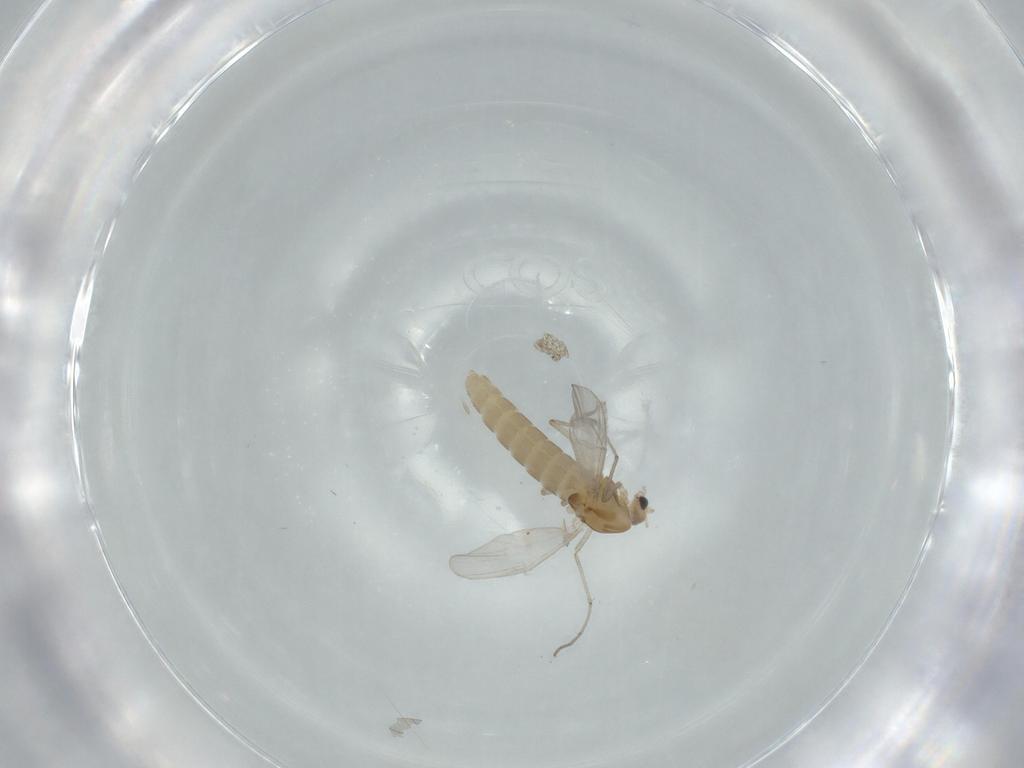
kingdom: Animalia
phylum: Arthropoda
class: Insecta
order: Diptera
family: Chironomidae
